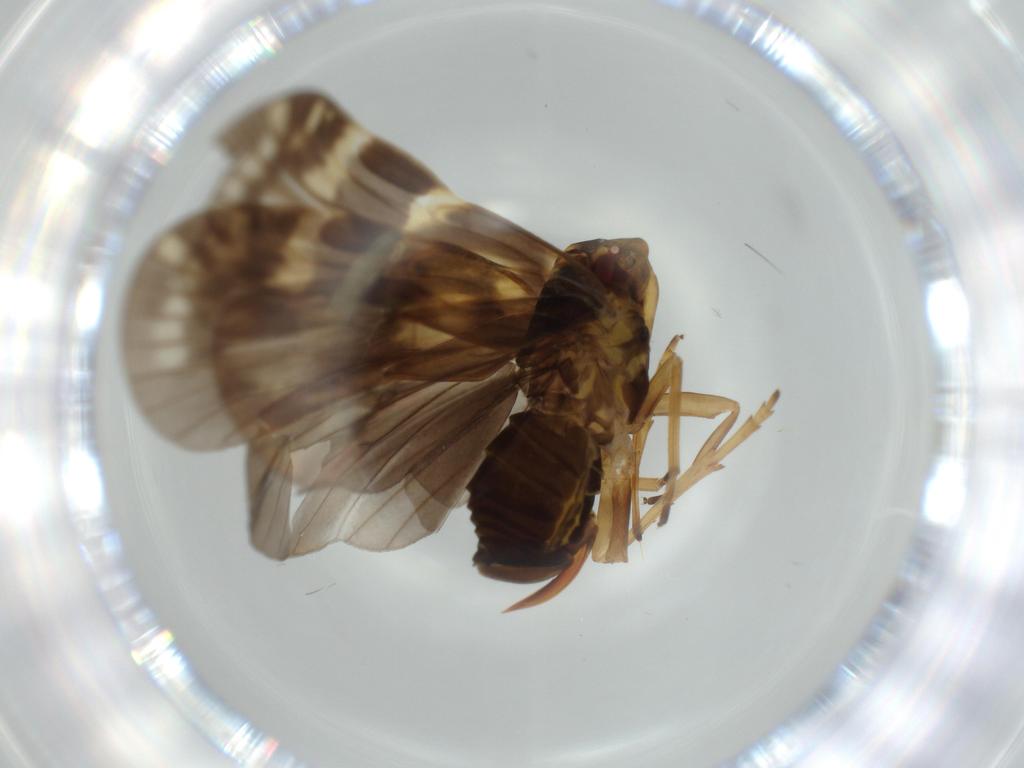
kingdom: Animalia
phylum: Arthropoda
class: Insecta
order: Hemiptera
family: Cixiidae
